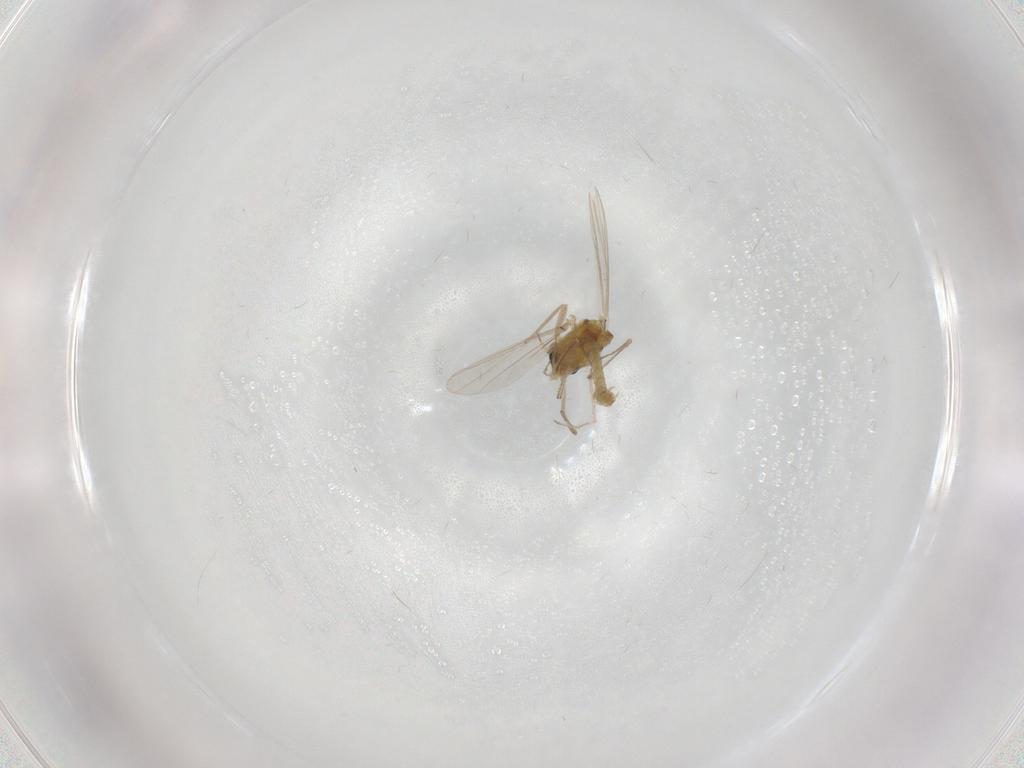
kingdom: Animalia
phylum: Arthropoda
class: Insecta
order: Diptera
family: Chironomidae
